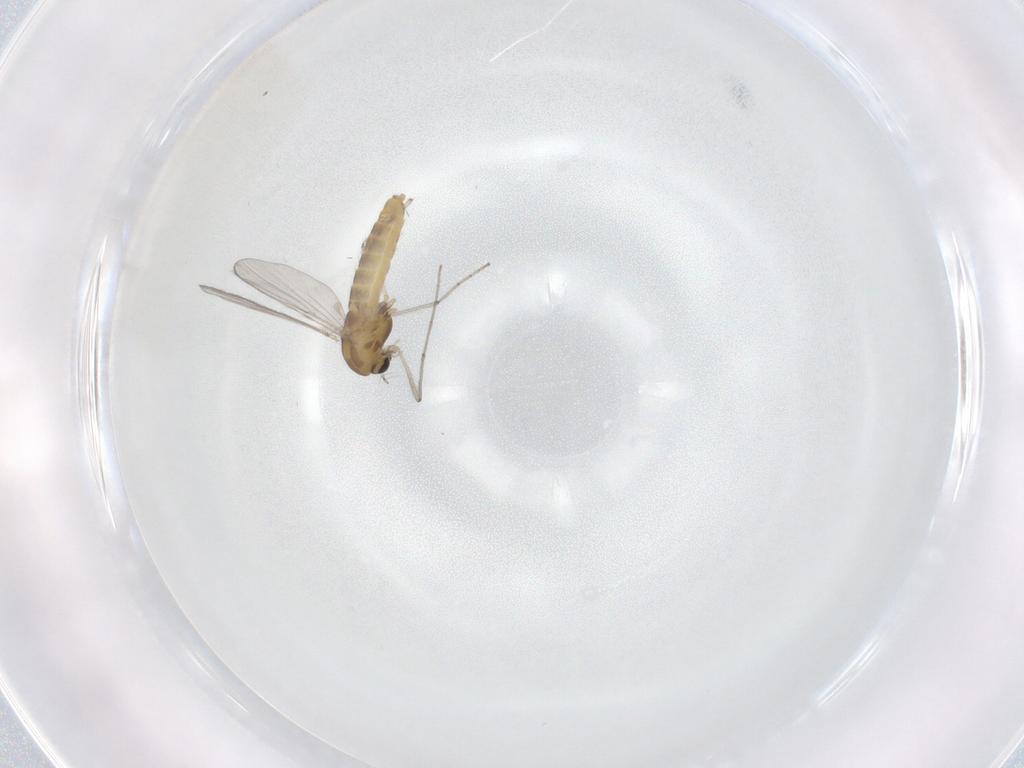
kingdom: Animalia
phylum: Arthropoda
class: Insecta
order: Diptera
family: Chironomidae
